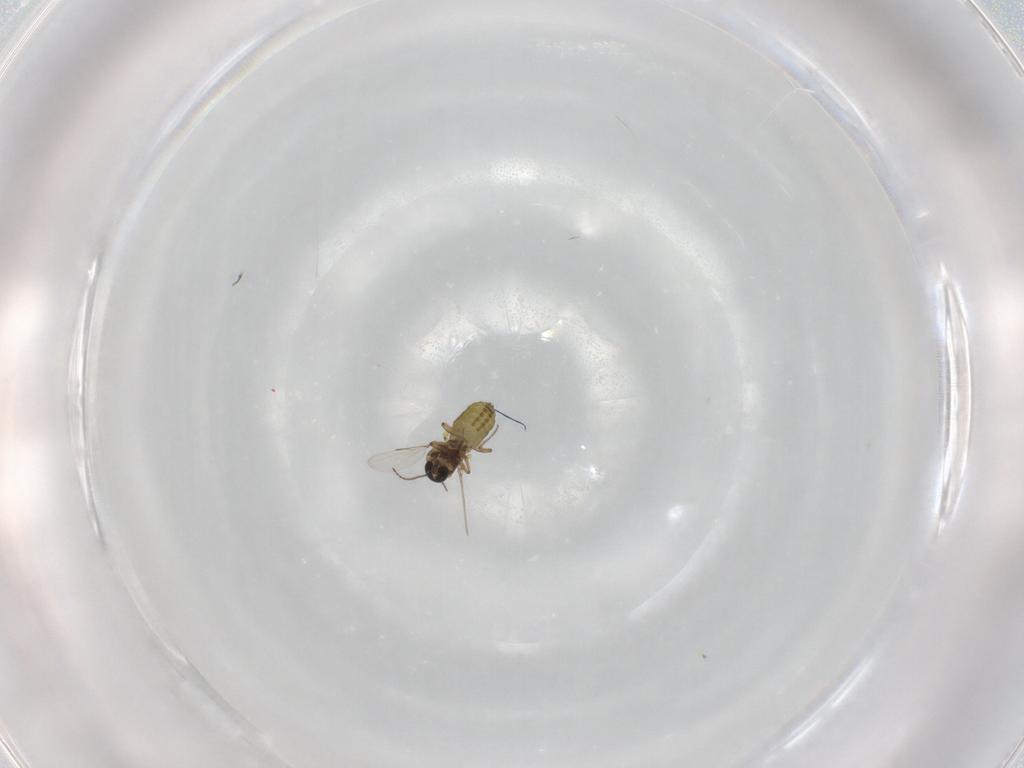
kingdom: Animalia
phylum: Arthropoda
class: Insecta
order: Diptera
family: Ceratopogonidae
